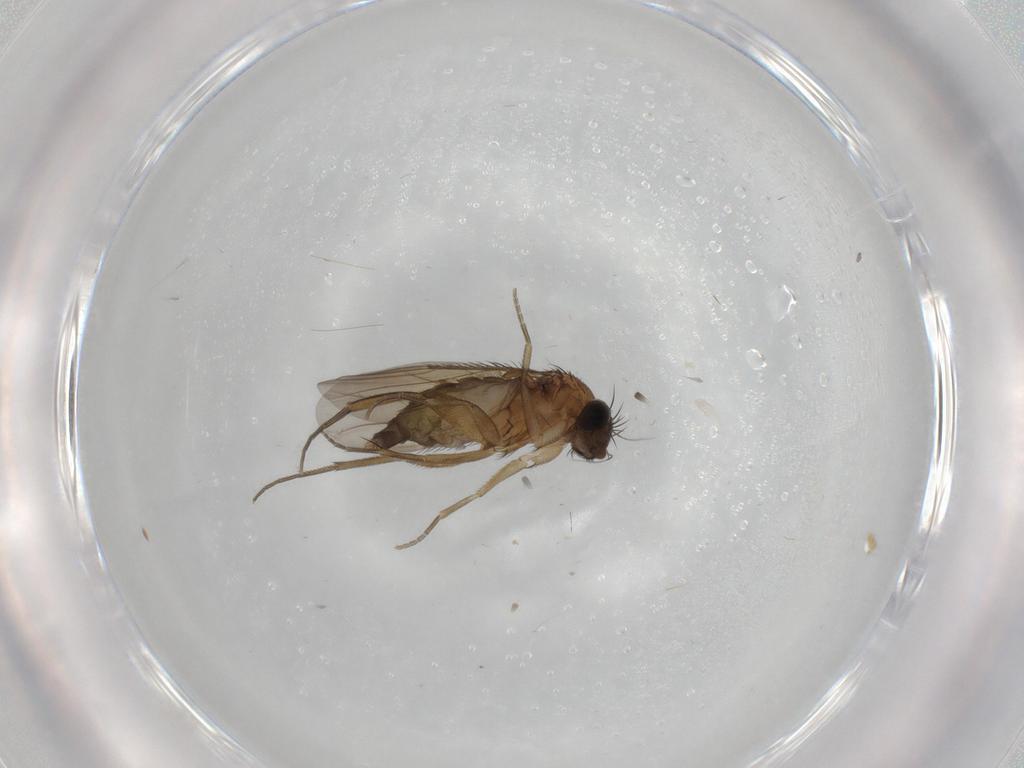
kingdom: Animalia
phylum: Arthropoda
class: Insecta
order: Diptera
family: Phoridae
